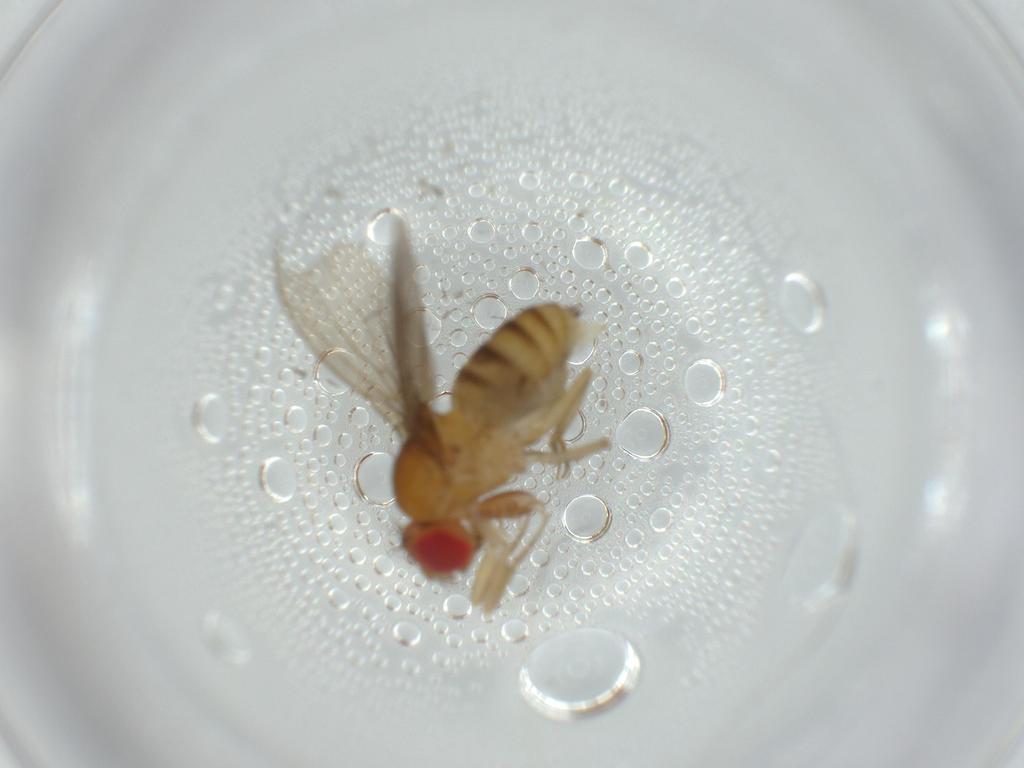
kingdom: Animalia
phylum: Arthropoda
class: Insecta
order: Diptera
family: Drosophilidae
